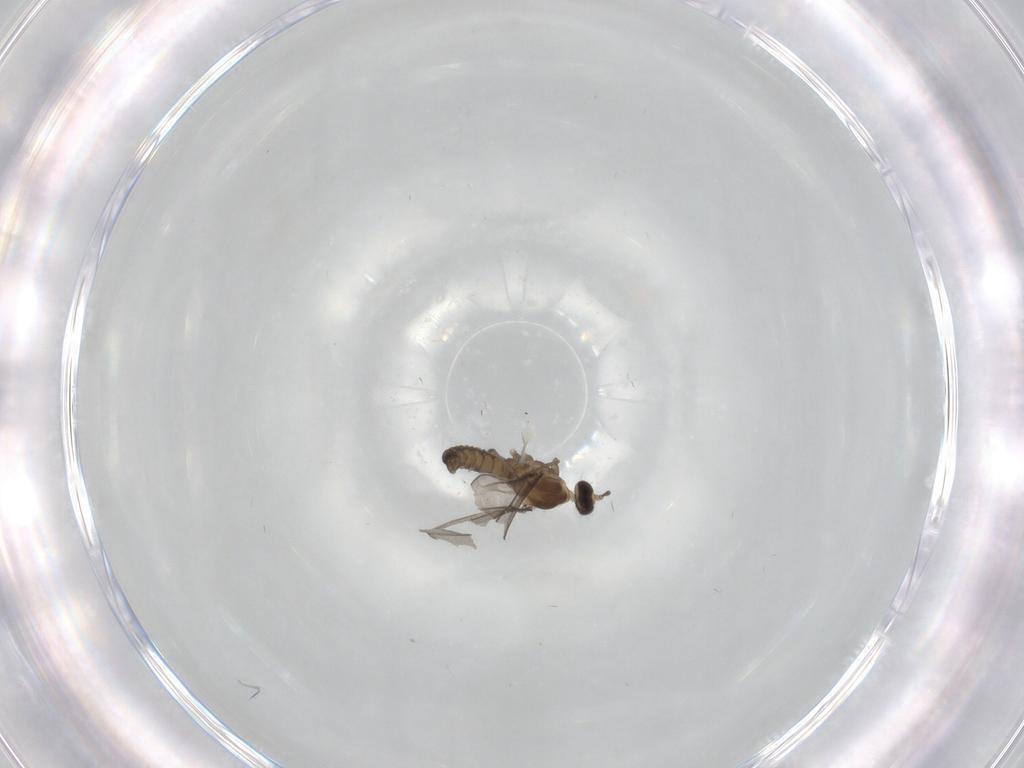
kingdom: Animalia
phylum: Arthropoda
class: Insecta
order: Diptera
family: Cecidomyiidae
